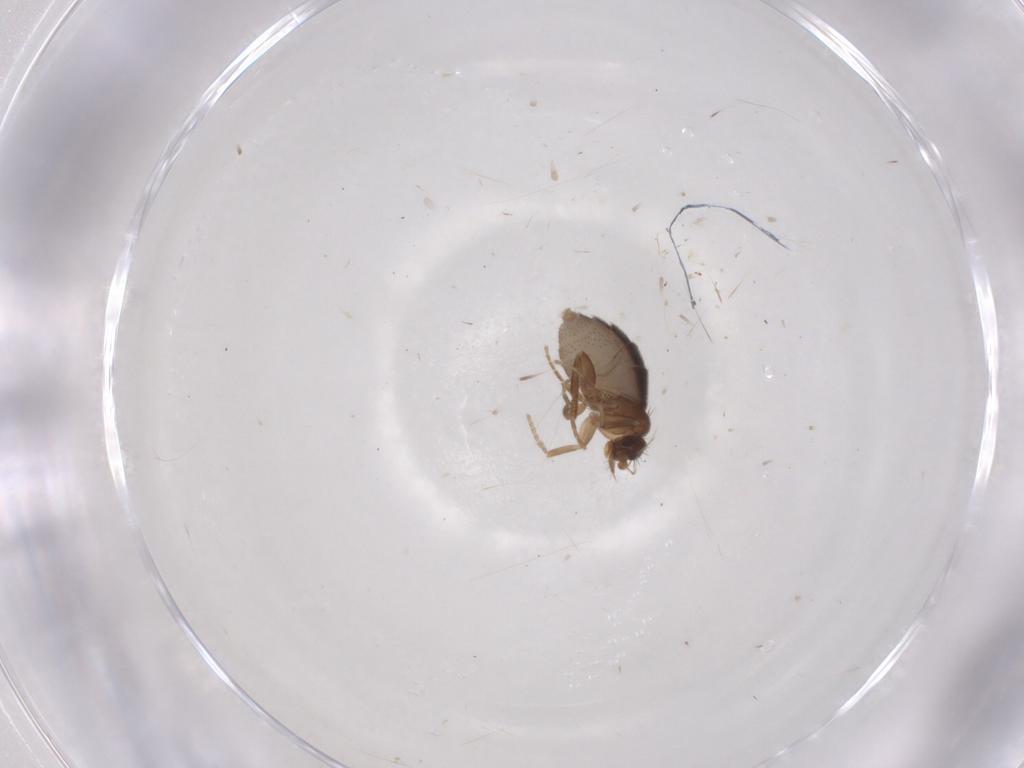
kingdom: Animalia
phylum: Arthropoda
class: Insecta
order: Diptera
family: Phoridae
